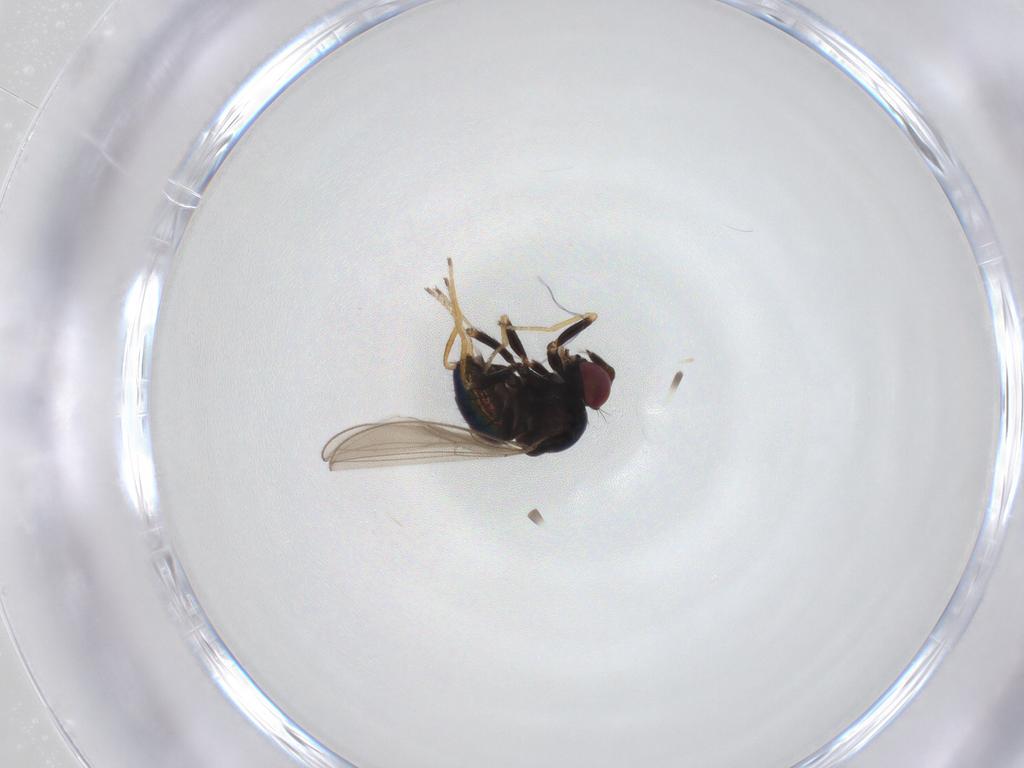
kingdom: Animalia
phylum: Arthropoda
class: Insecta
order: Diptera
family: Ephydridae
